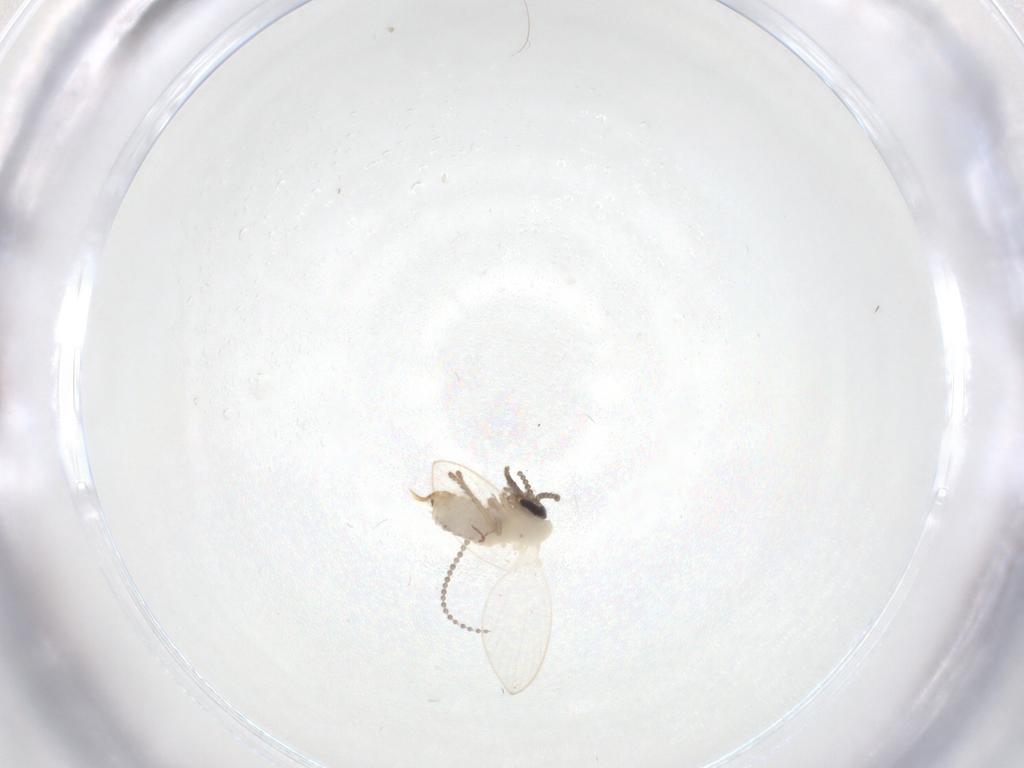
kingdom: Animalia
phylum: Arthropoda
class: Insecta
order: Diptera
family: Psychodidae
